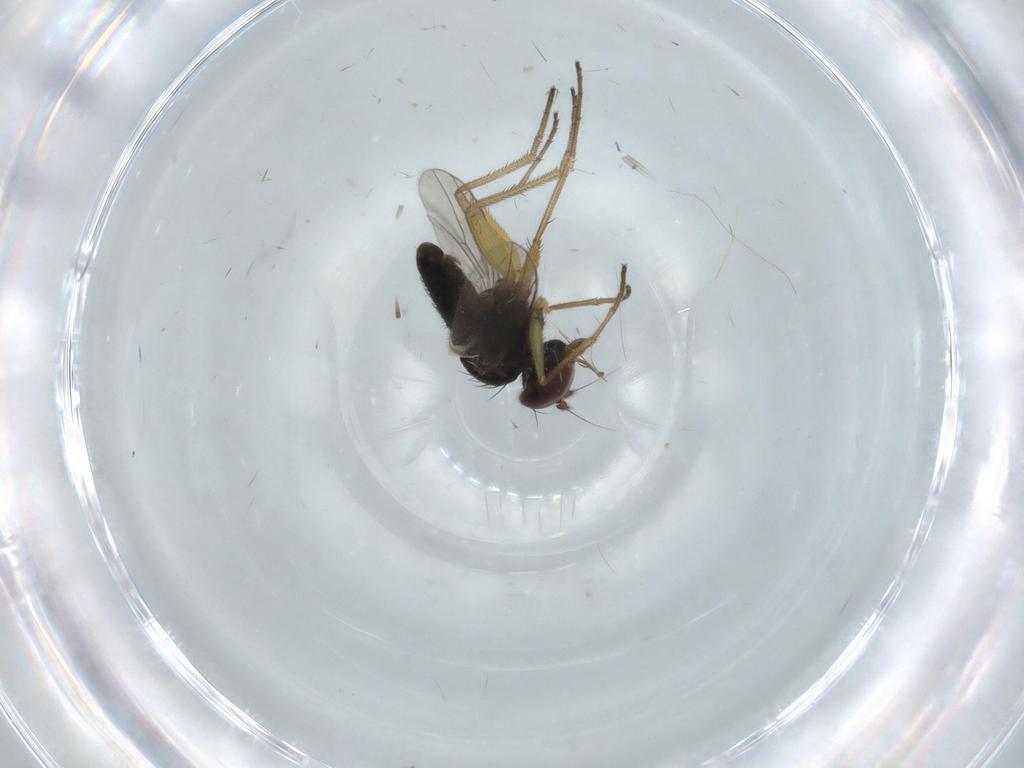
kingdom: Animalia
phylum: Arthropoda
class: Insecta
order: Diptera
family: Dolichopodidae
